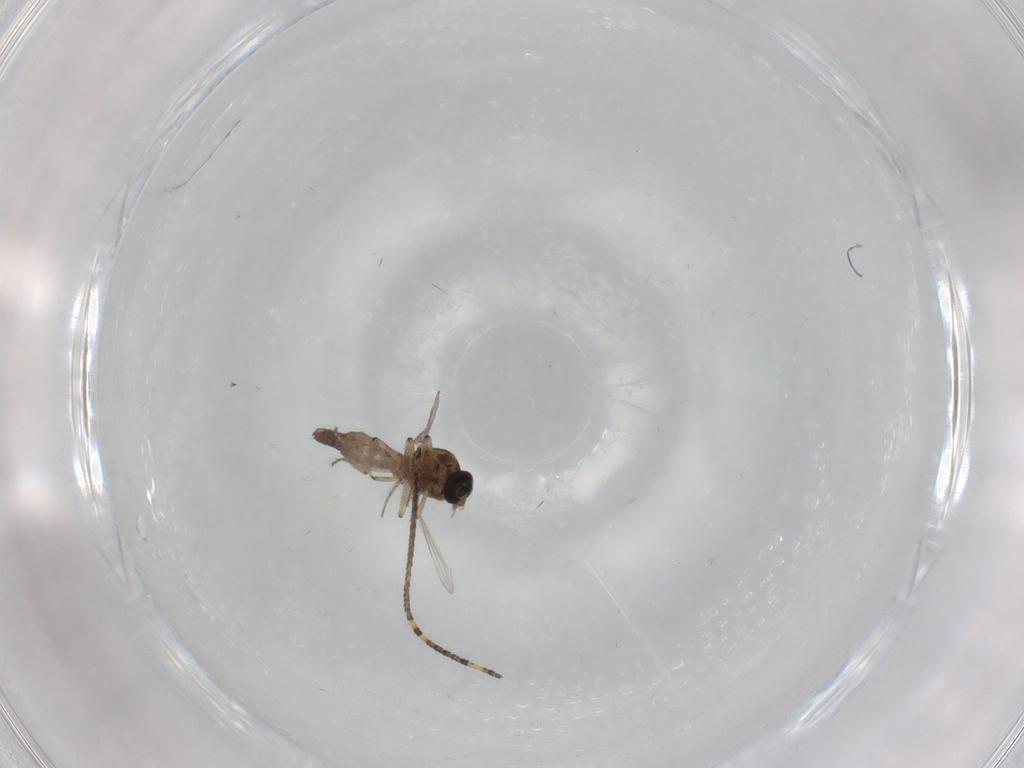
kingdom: Animalia
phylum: Arthropoda
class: Insecta
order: Diptera
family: Ceratopogonidae
